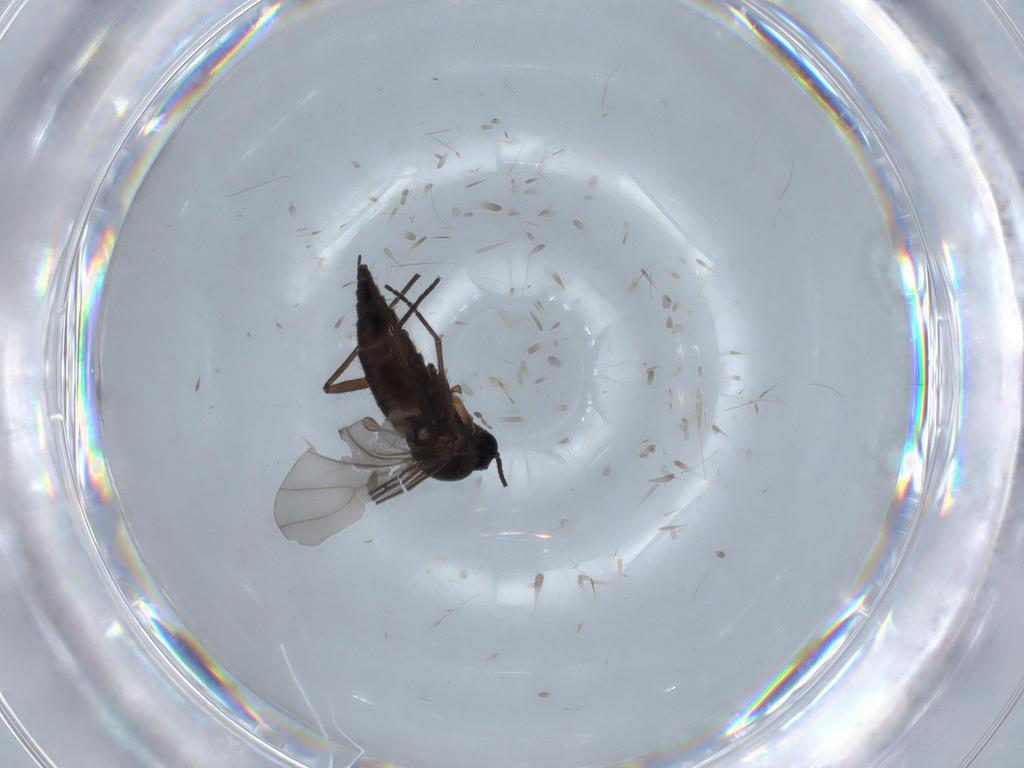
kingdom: Animalia
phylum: Arthropoda
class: Insecta
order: Diptera
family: Sciaridae
